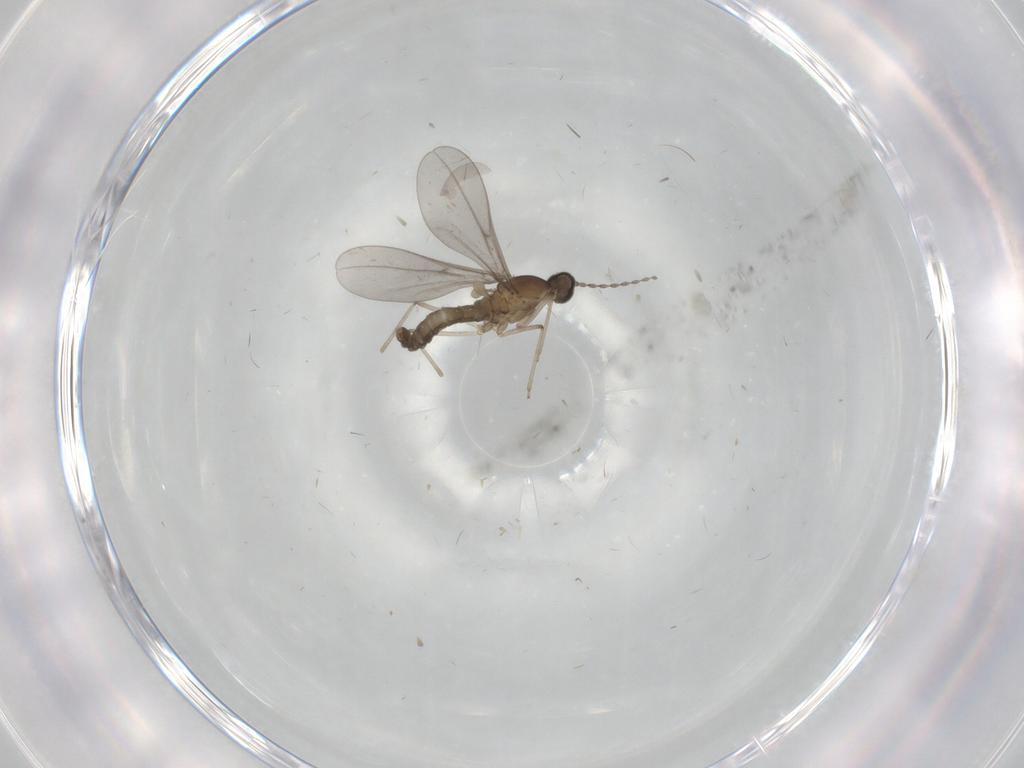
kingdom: Animalia
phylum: Arthropoda
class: Insecta
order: Diptera
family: Cecidomyiidae
